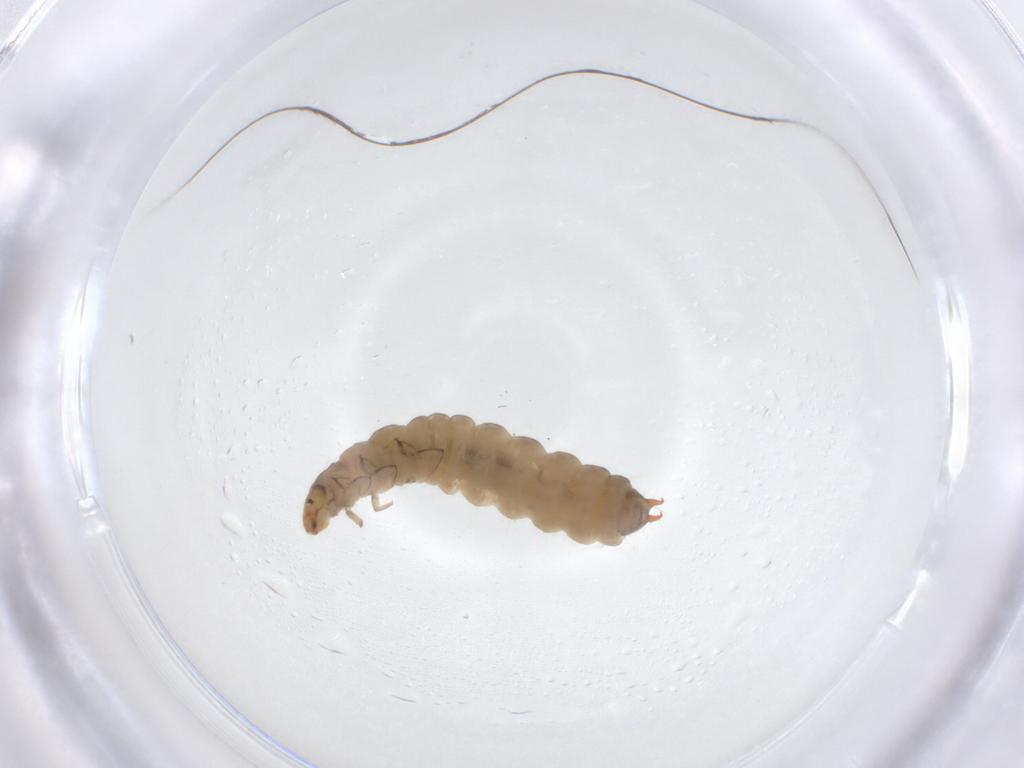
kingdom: Animalia
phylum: Arthropoda
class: Insecta
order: Coleoptera
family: Melyridae
